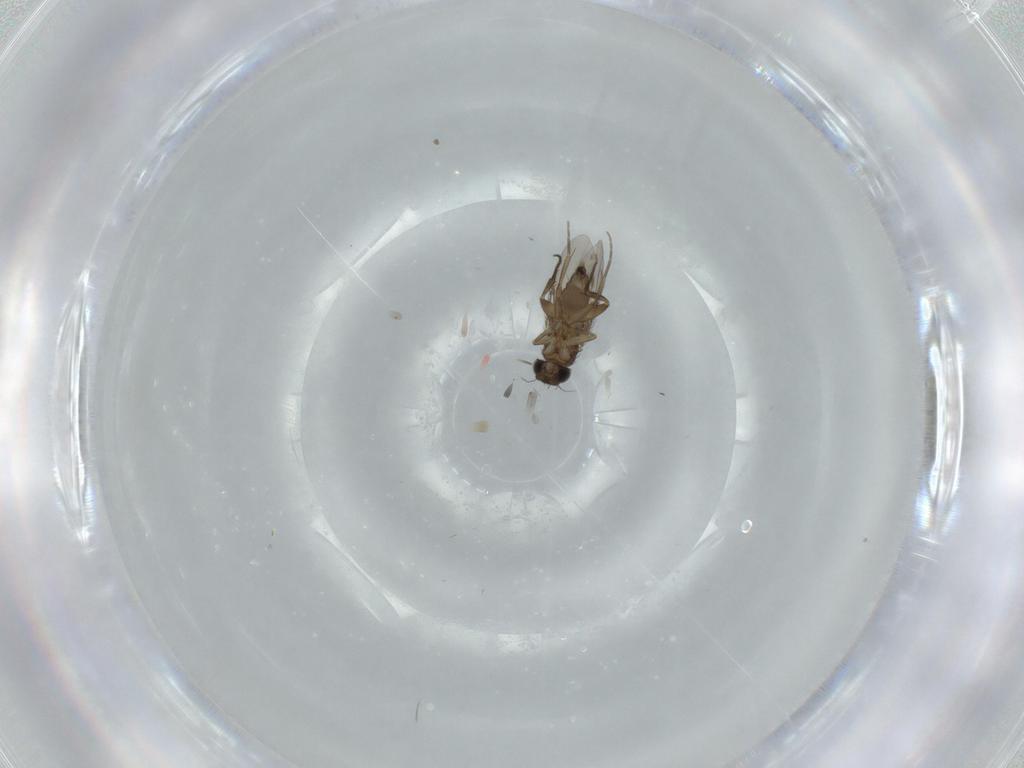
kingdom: Animalia
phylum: Arthropoda
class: Insecta
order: Diptera
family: Phoridae
